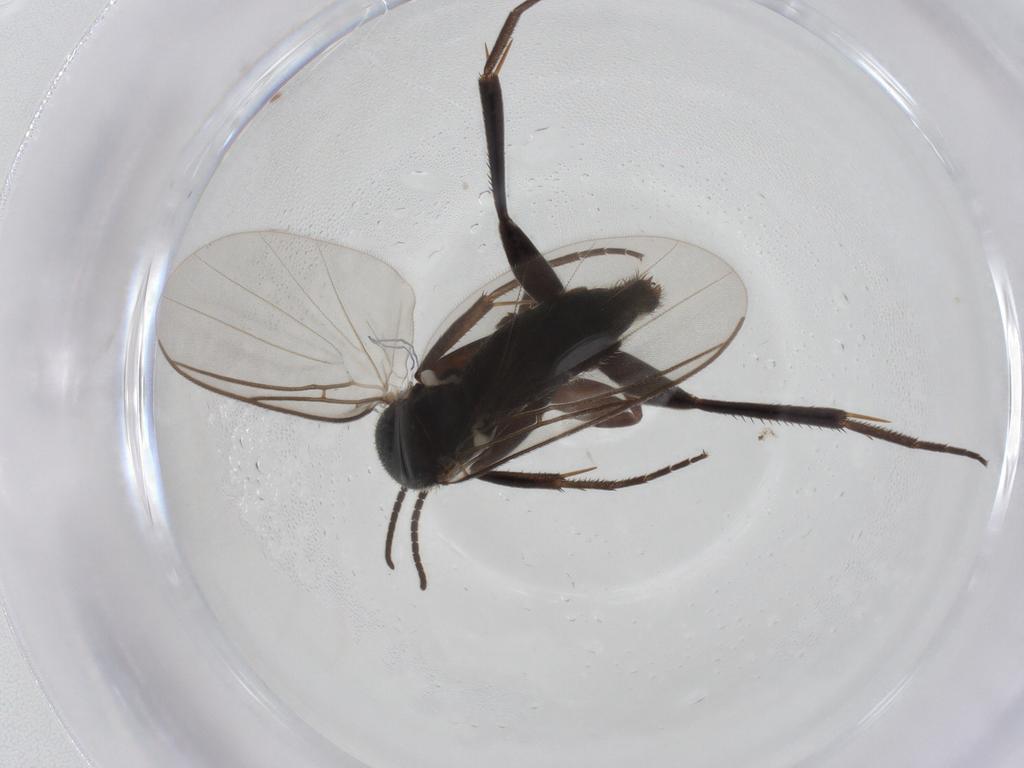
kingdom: Animalia
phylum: Arthropoda
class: Insecta
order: Diptera
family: Mycetophilidae
